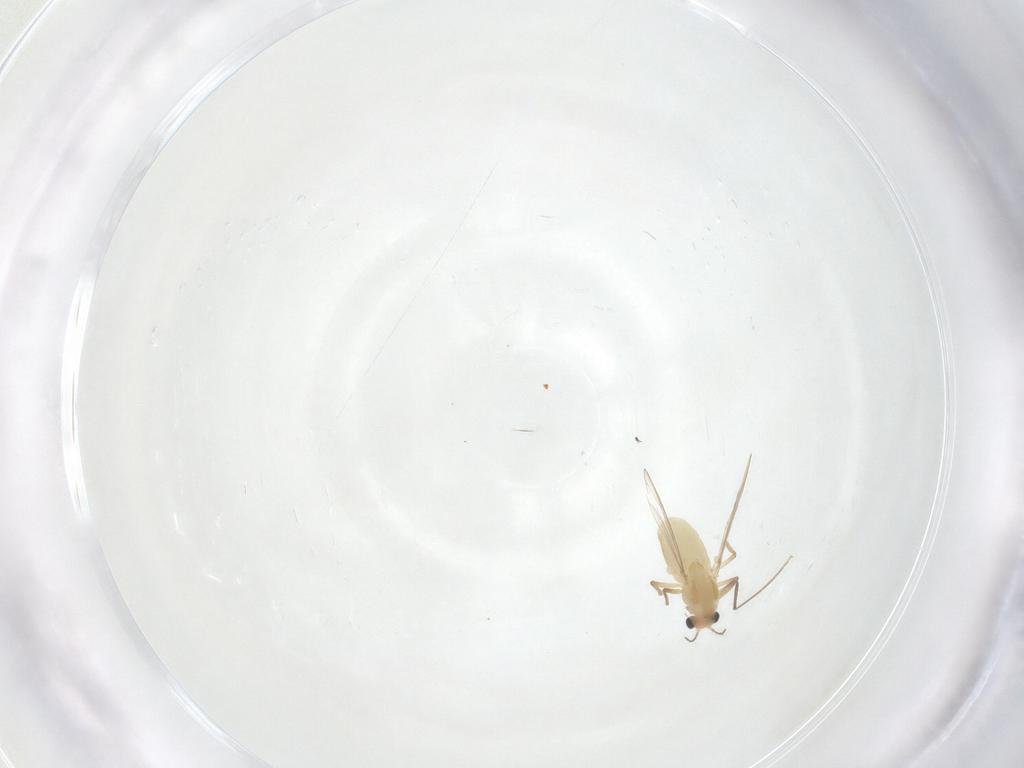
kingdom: Animalia
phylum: Arthropoda
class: Insecta
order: Diptera
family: Chironomidae
